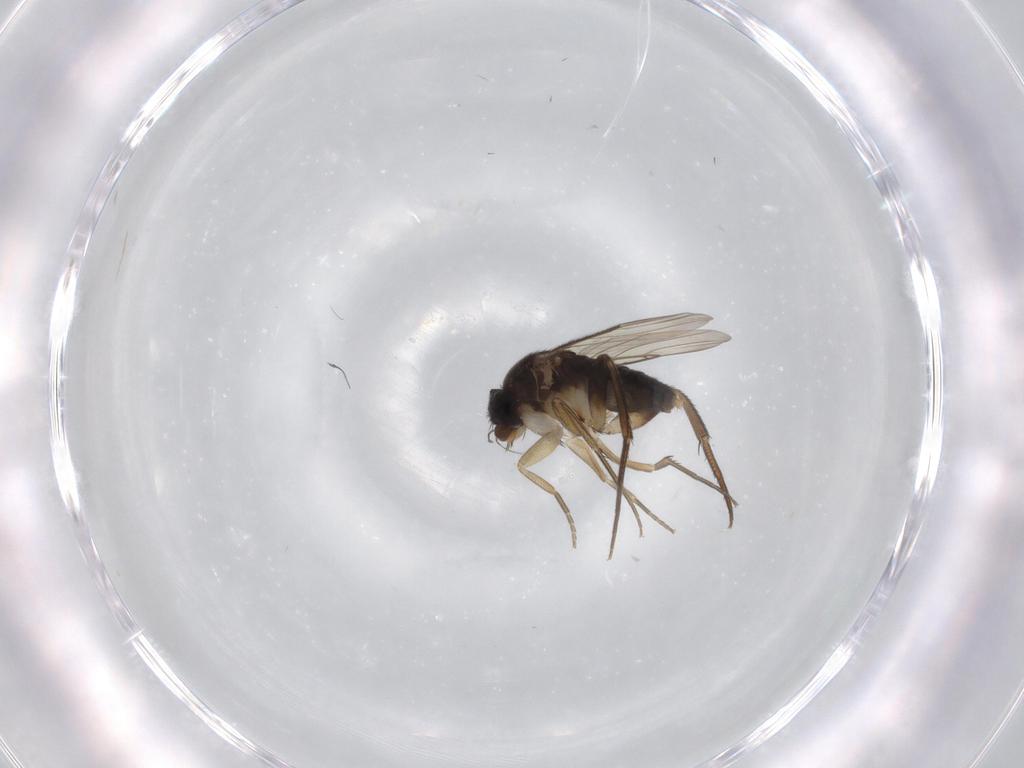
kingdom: Animalia
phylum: Arthropoda
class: Insecta
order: Diptera
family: Phoridae
